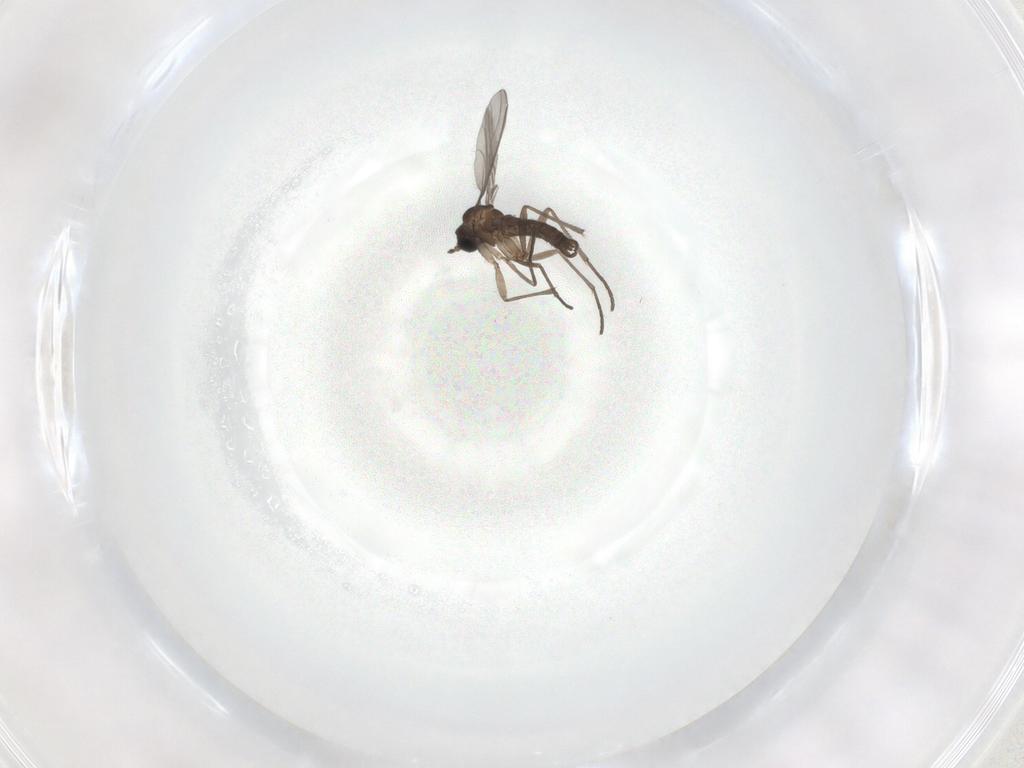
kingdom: Animalia
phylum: Arthropoda
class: Insecta
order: Diptera
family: Sciaridae
